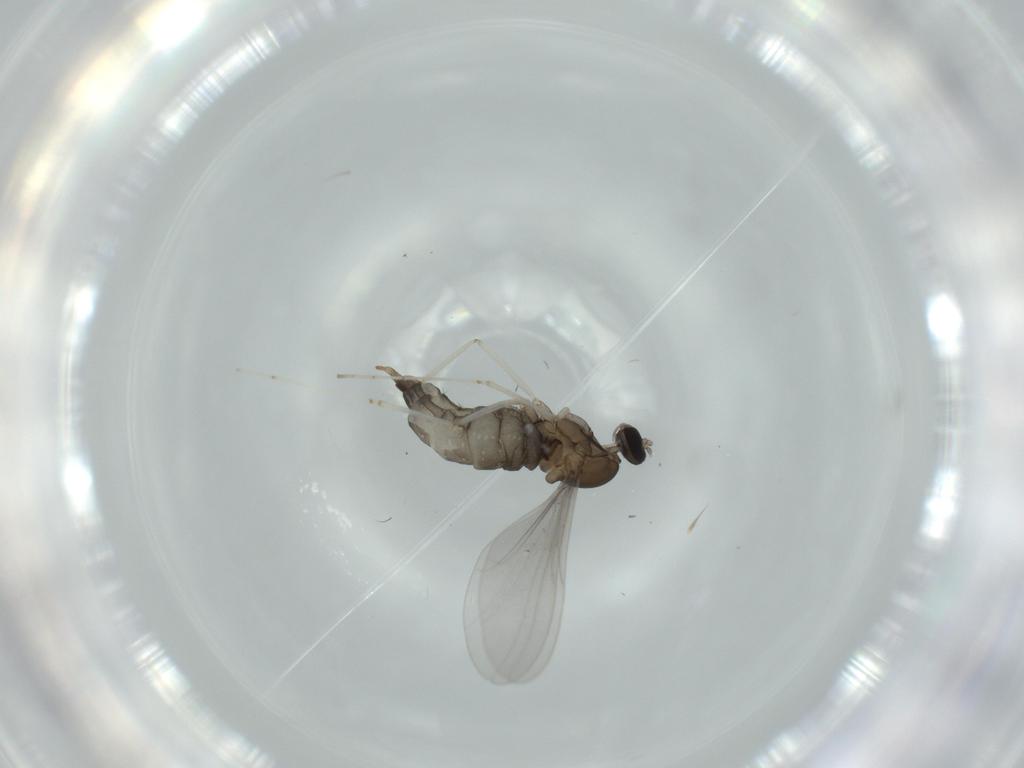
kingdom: Animalia
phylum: Arthropoda
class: Insecta
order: Diptera
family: Cecidomyiidae
